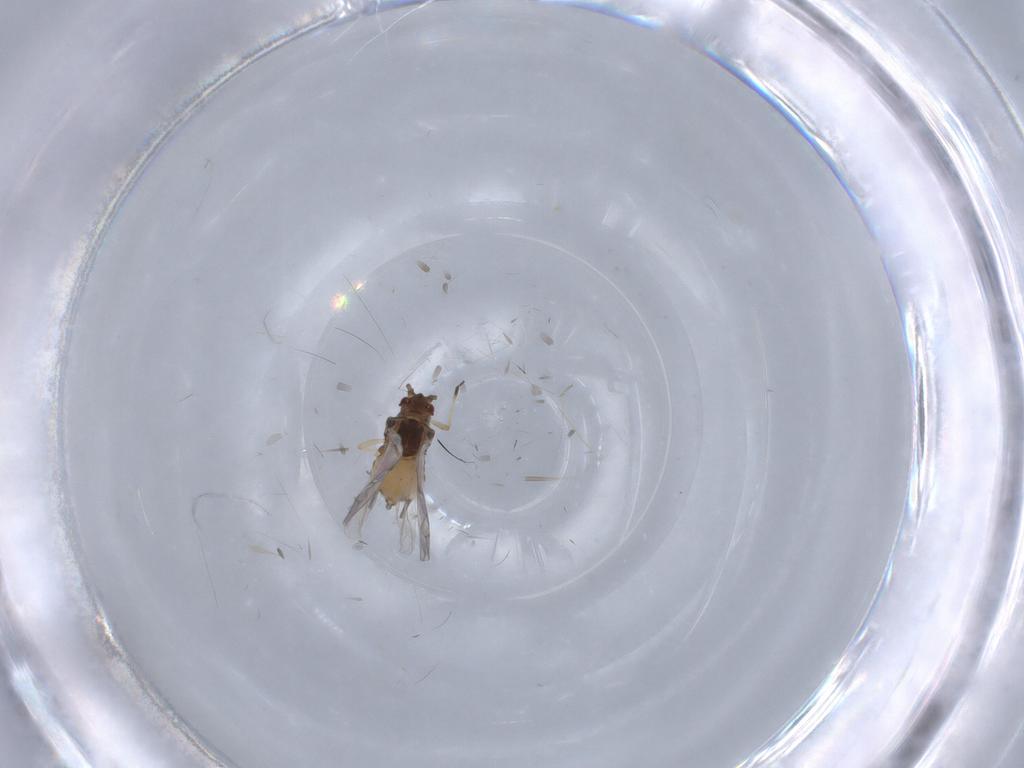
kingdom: Animalia
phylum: Arthropoda
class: Insecta
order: Hemiptera
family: Aphididae
